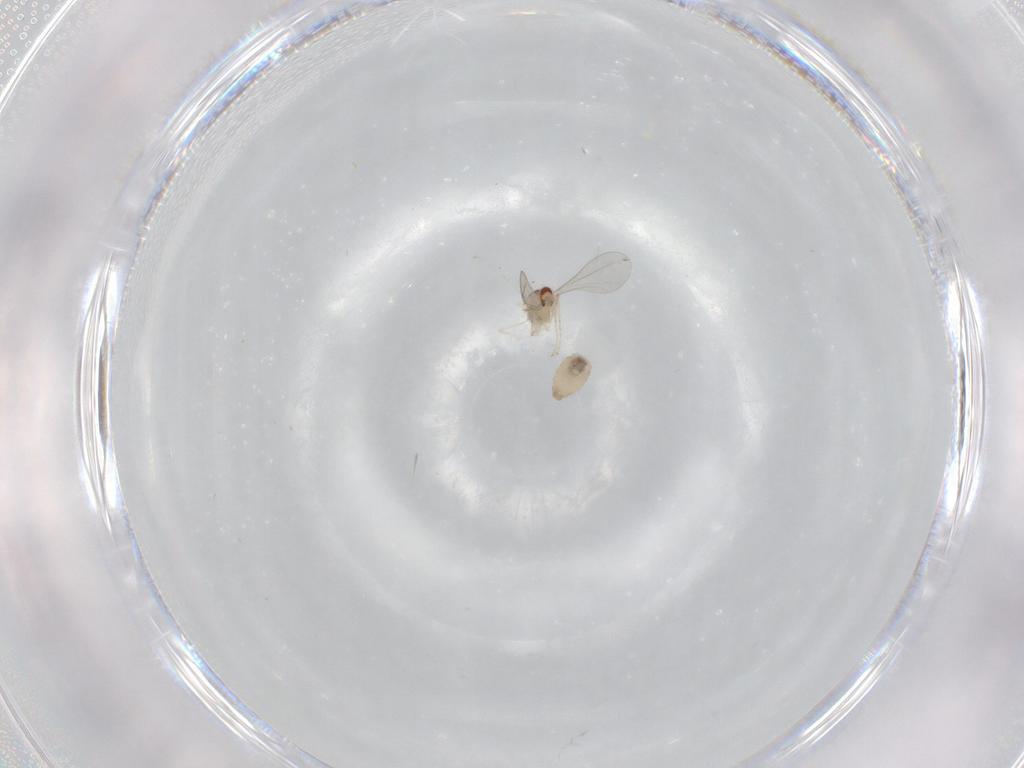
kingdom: Animalia
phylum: Arthropoda
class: Insecta
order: Diptera
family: Cecidomyiidae
